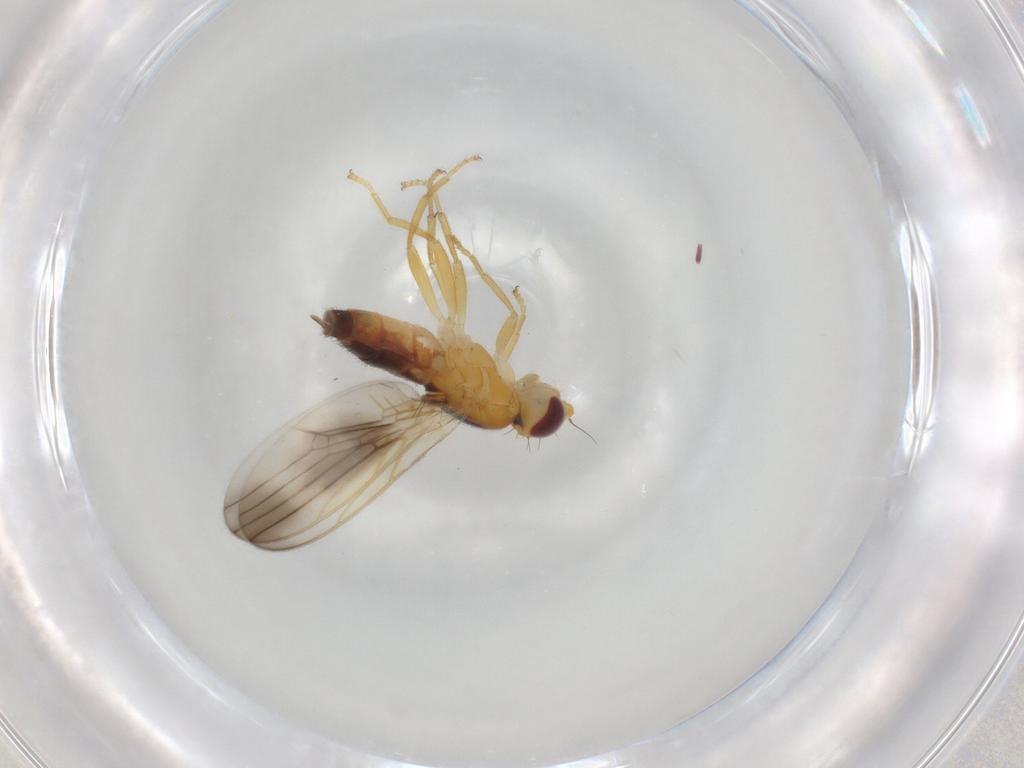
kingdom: Animalia
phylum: Arthropoda
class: Insecta
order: Diptera
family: Neurochaetidae
